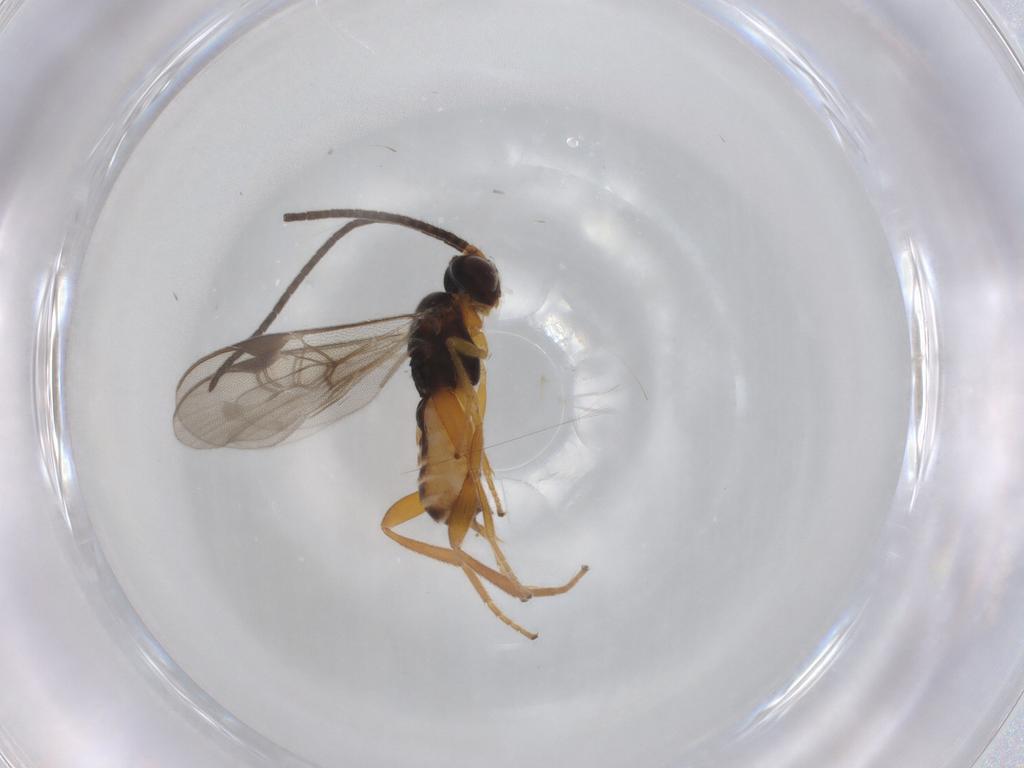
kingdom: Animalia
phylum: Arthropoda
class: Insecta
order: Hymenoptera
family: Braconidae
